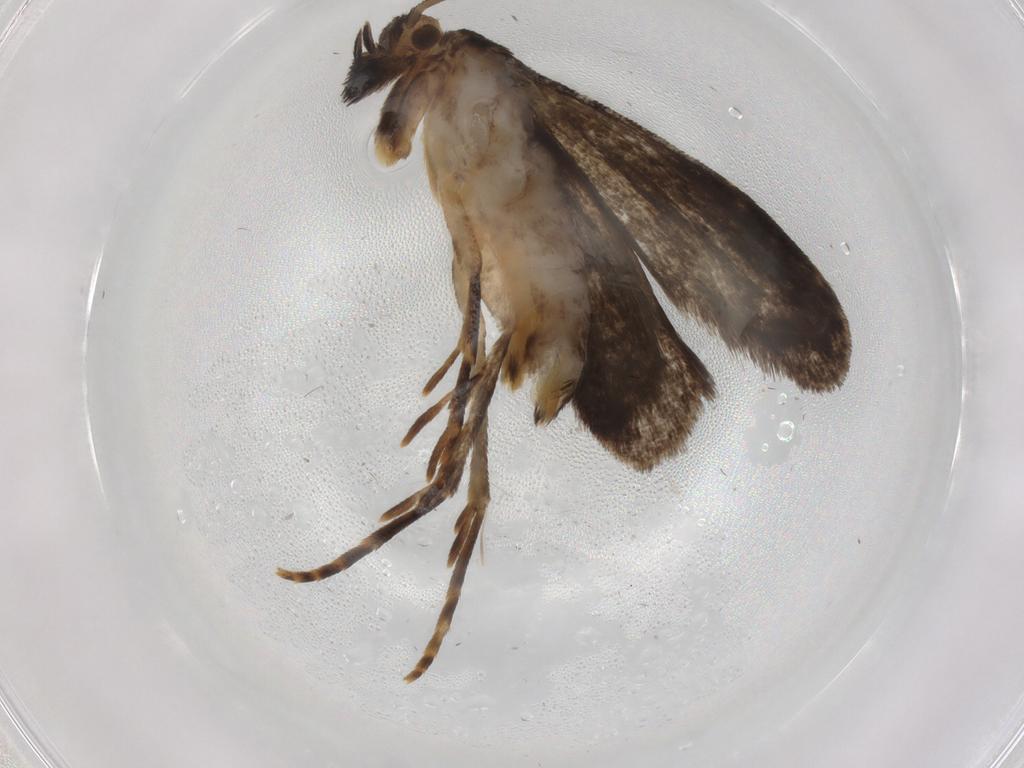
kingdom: Animalia
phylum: Arthropoda
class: Insecta
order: Lepidoptera
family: Dryadaulidae
